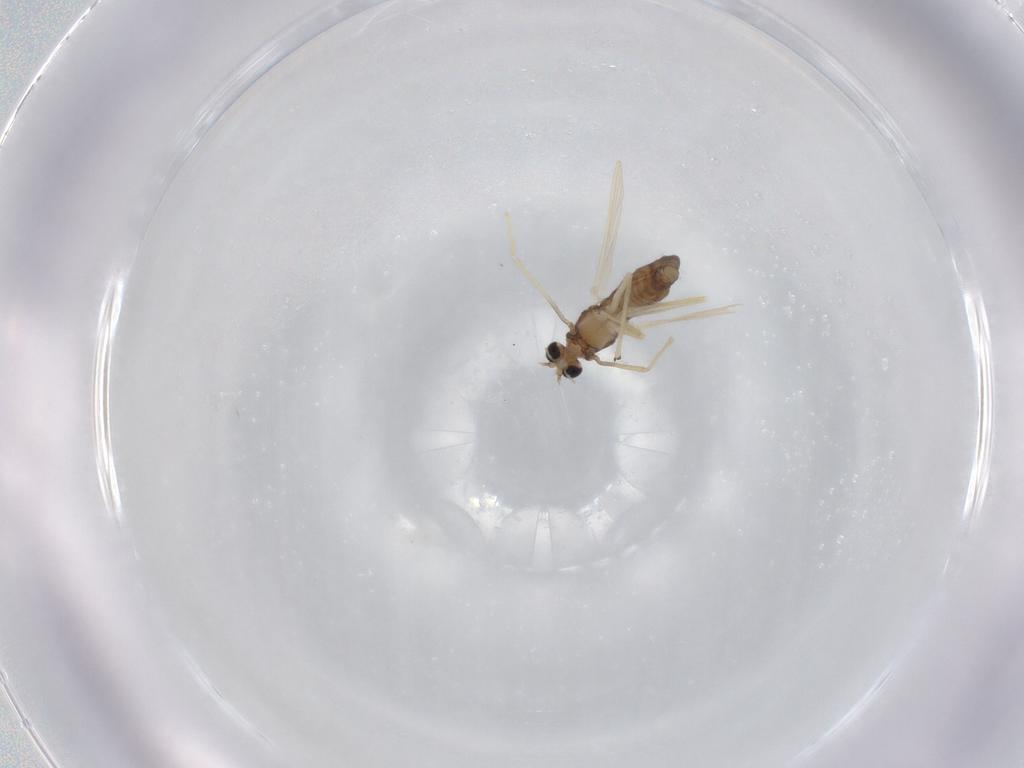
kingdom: Animalia
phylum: Arthropoda
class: Insecta
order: Diptera
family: Chironomidae
